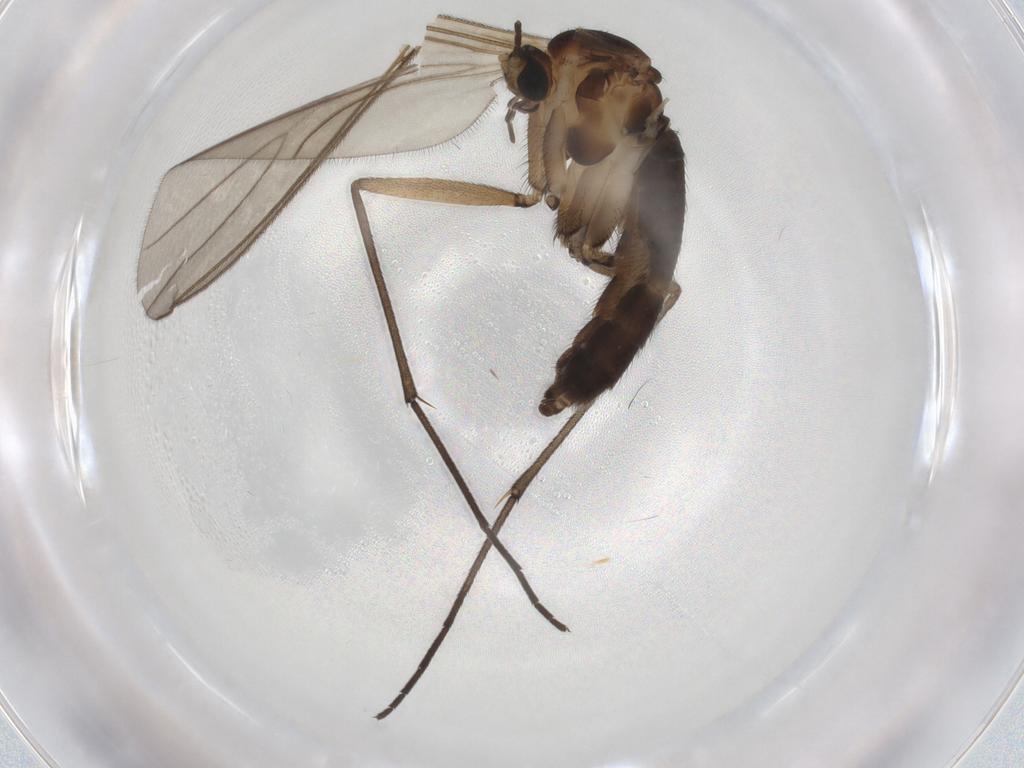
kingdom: Animalia
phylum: Arthropoda
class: Insecta
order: Diptera
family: Sciaridae
